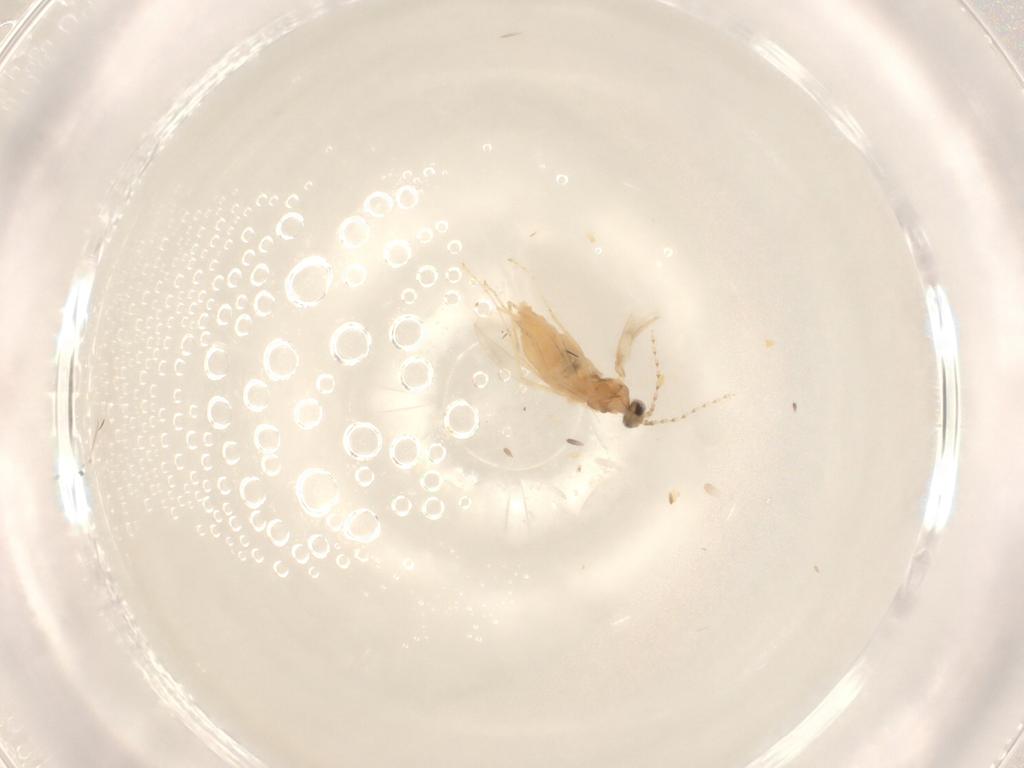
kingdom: Animalia
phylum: Arthropoda
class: Insecta
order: Diptera
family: Chironomidae
